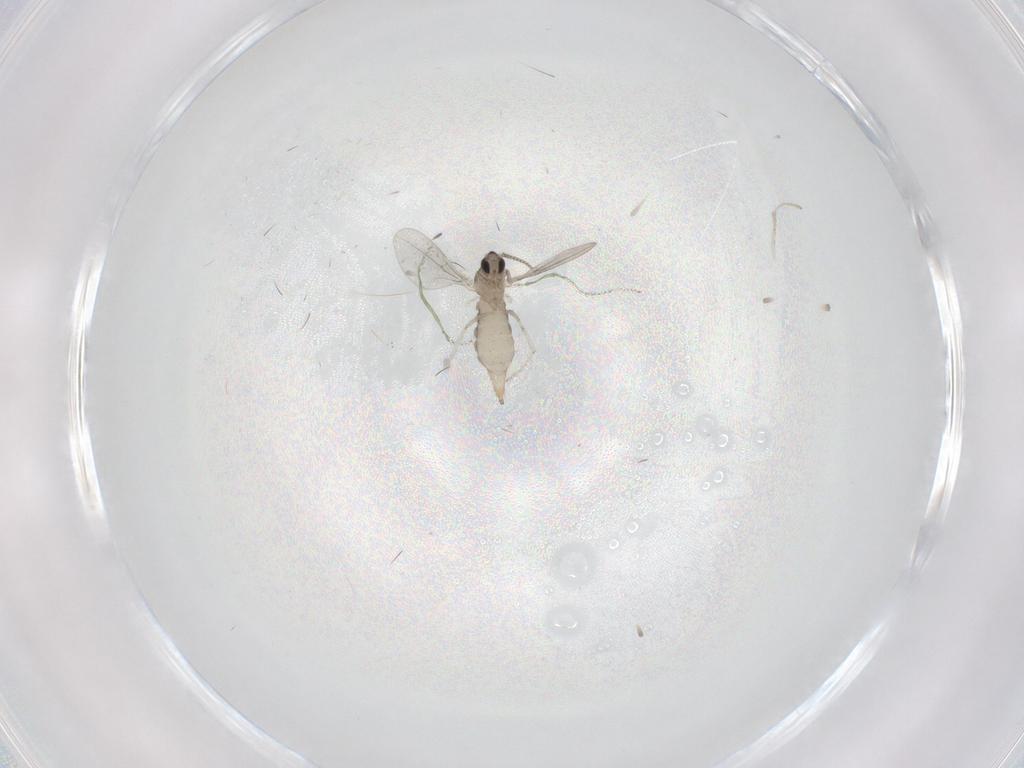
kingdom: Animalia
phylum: Arthropoda
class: Insecta
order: Diptera
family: Cecidomyiidae
